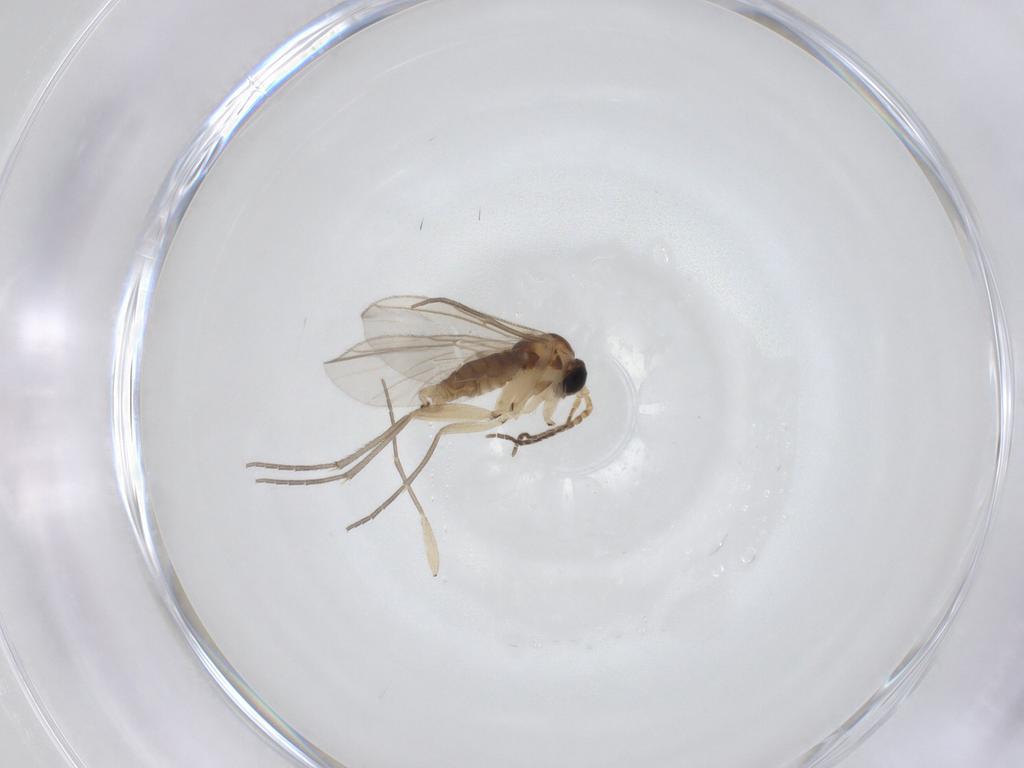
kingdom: Animalia
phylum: Arthropoda
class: Insecta
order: Diptera
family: Sciaridae
